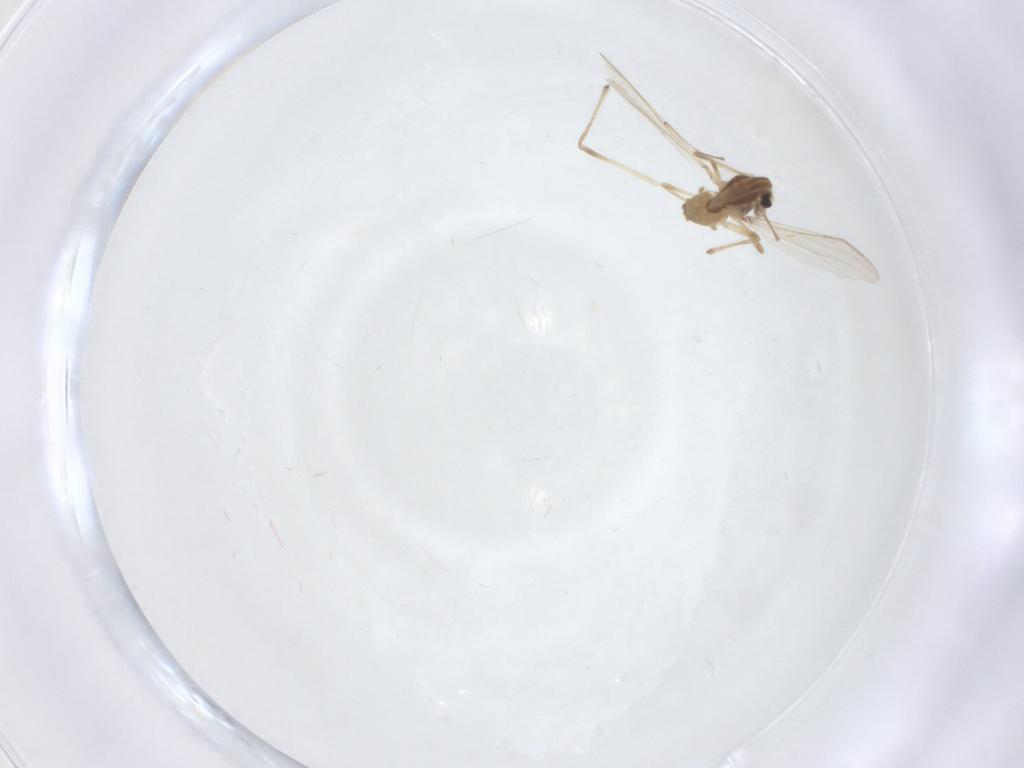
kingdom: Animalia
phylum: Arthropoda
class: Insecta
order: Diptera
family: Chironomidae
